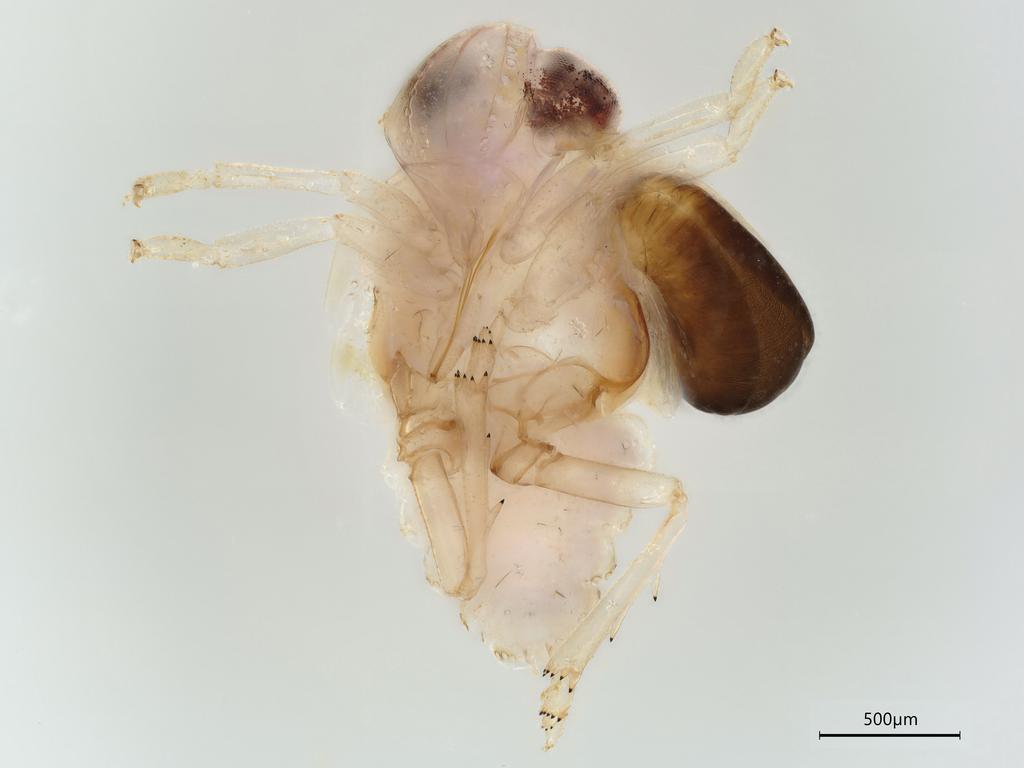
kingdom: Animalia
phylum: Arthropoda
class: Insecta
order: Hemiptera
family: Nogodinidae
